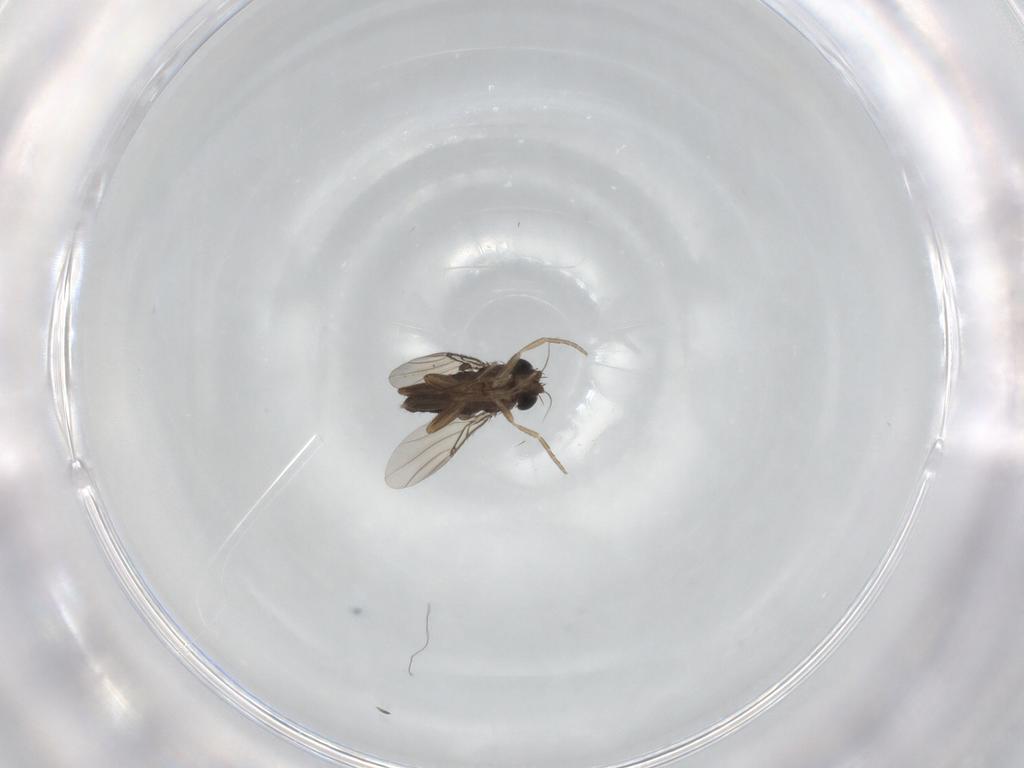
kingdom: Animalia
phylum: Arthropoda
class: Insecta
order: Diptera
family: Phoridae
